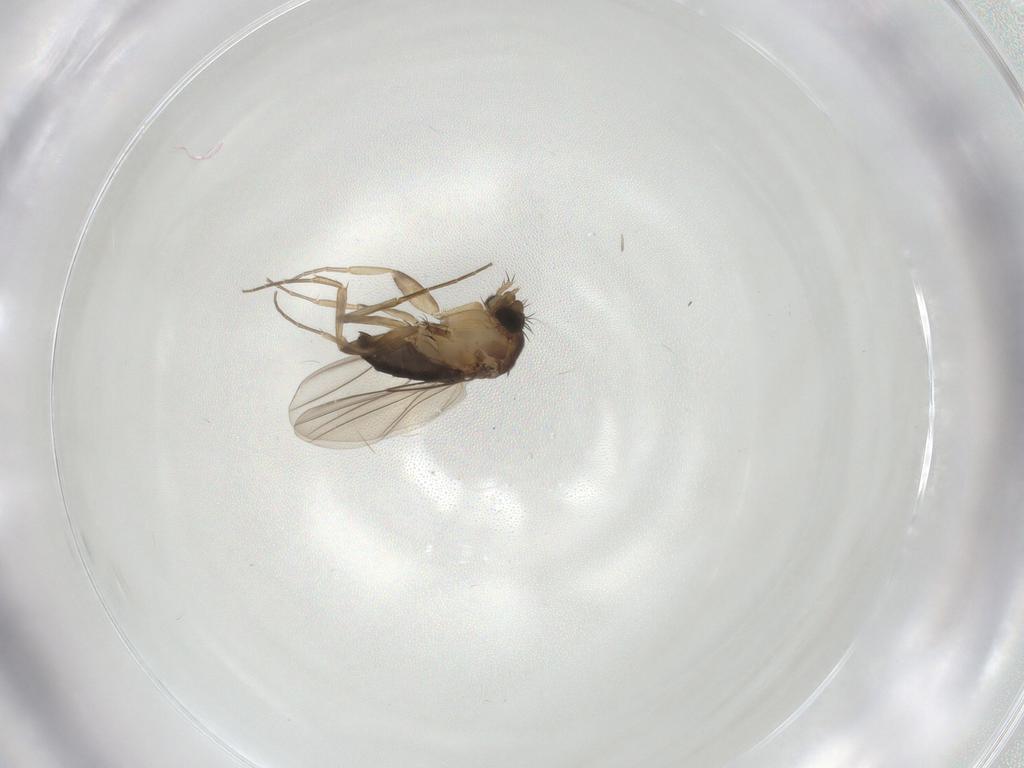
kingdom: Animalia
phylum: Arthropoda
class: Insecta
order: Diptera
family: Phoridae
